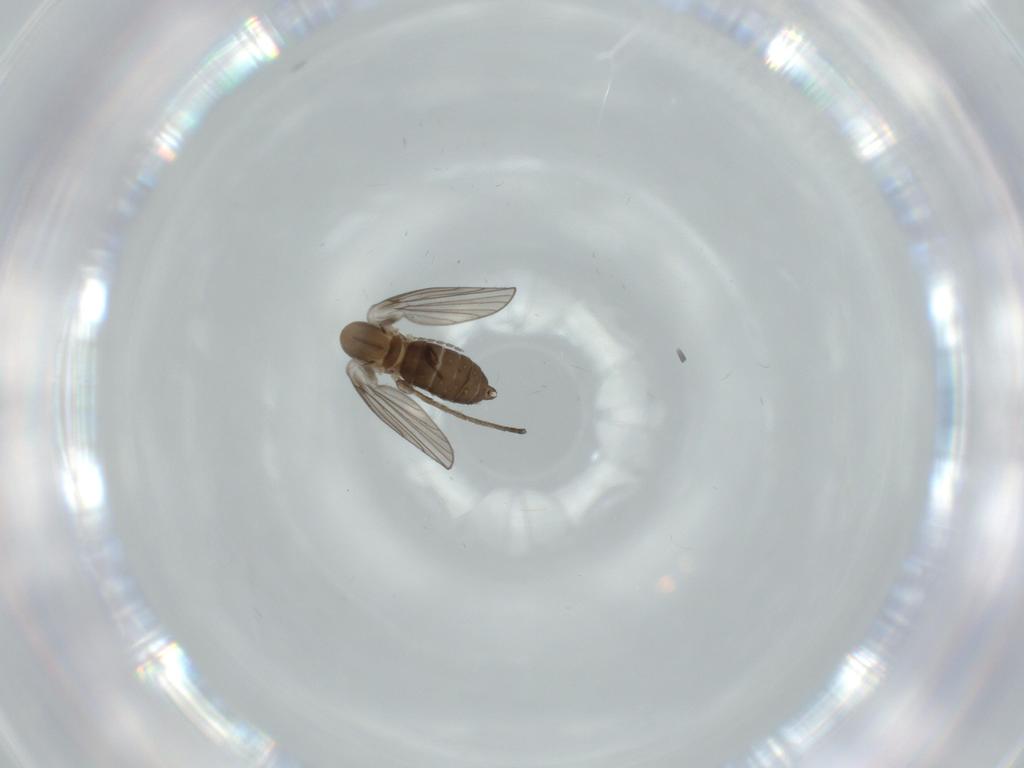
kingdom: Animalia
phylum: Arthropoda
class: Insecta
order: Diptera
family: Psychodidae
